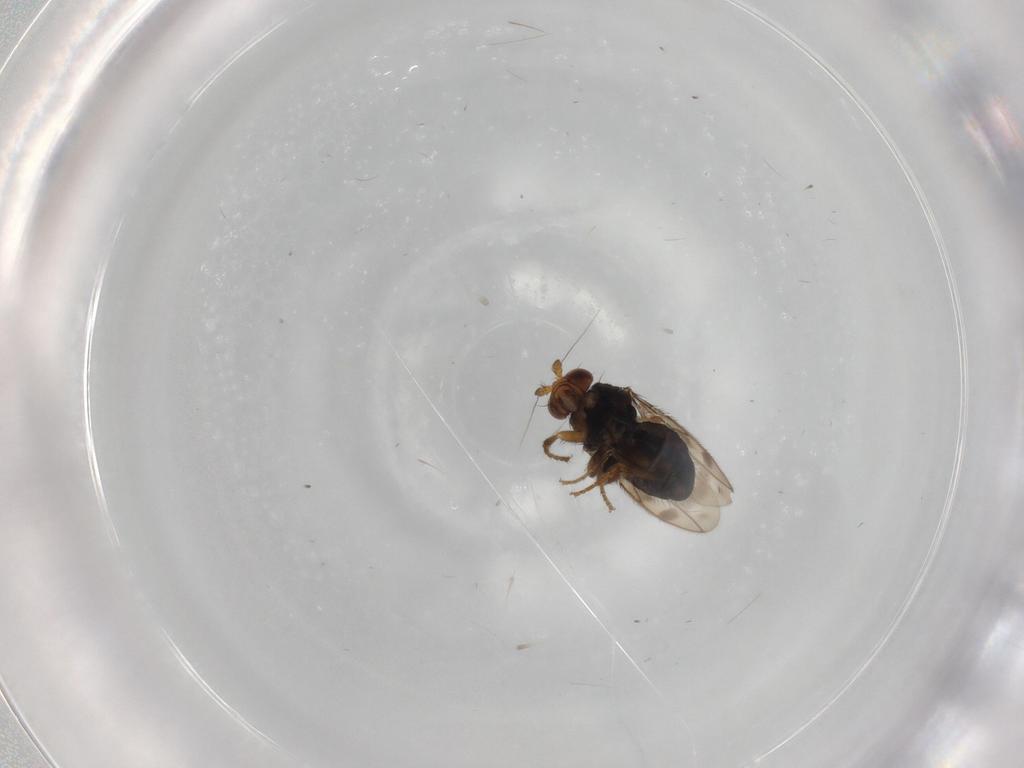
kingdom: Animalia
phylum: Arthropoda
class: Insecta
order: Diptera
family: Sphaeroceridae
